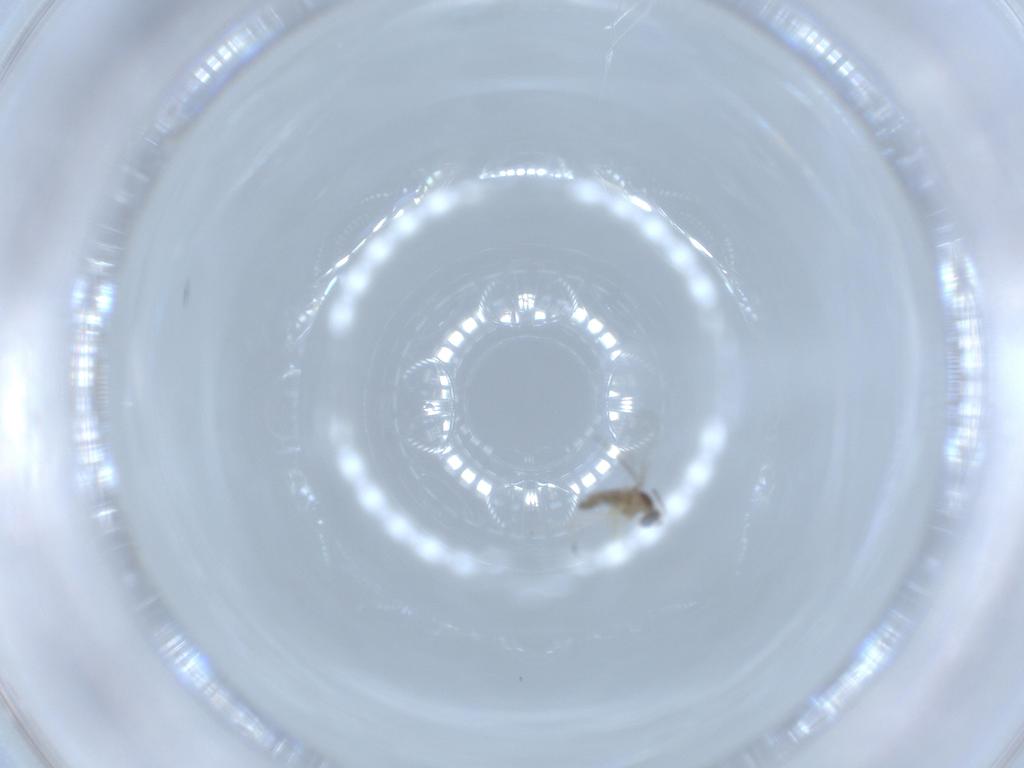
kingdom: Animalia
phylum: Arthropoda
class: Insecta
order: Diptera
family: Cecidomyiidae
